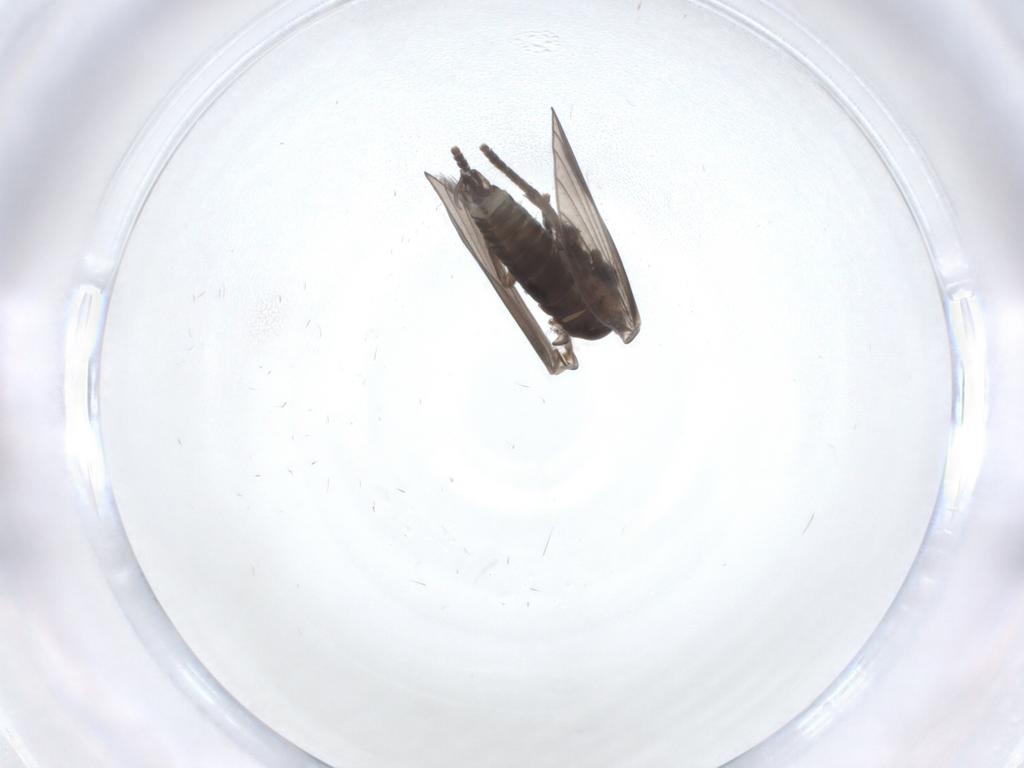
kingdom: Animalia
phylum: Arthropoda
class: Insecta
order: Diptera
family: Psychodidae
